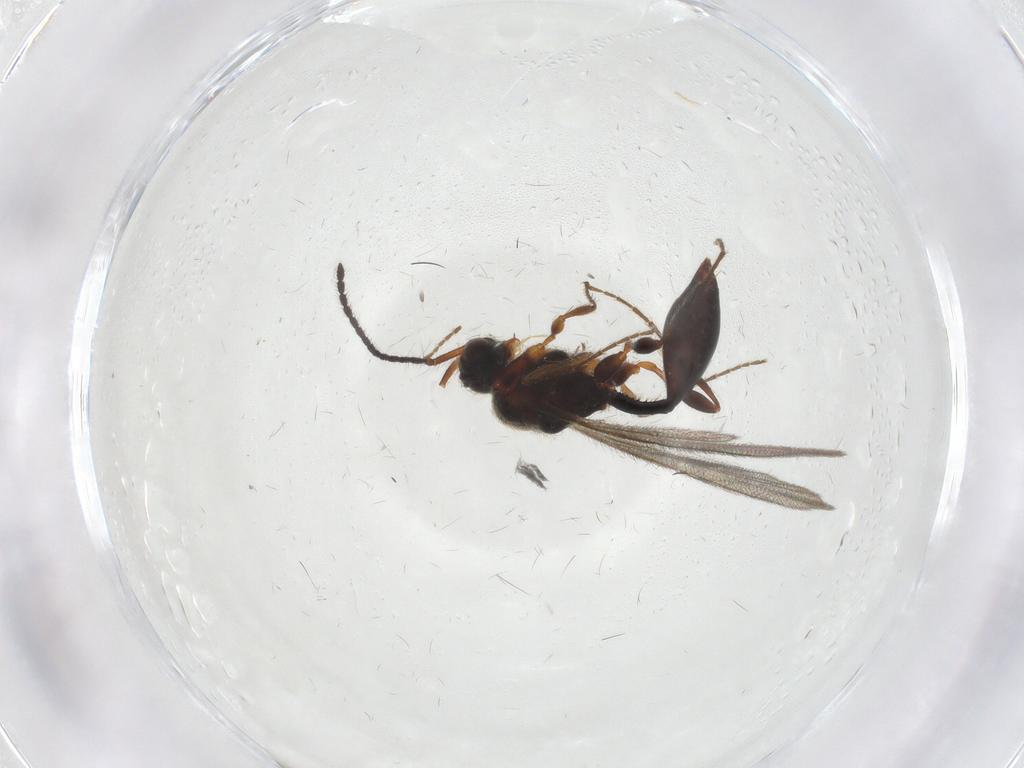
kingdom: Animalia
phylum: Arthropoda
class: Insecta
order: Hymenoptera
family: Diapriidae
